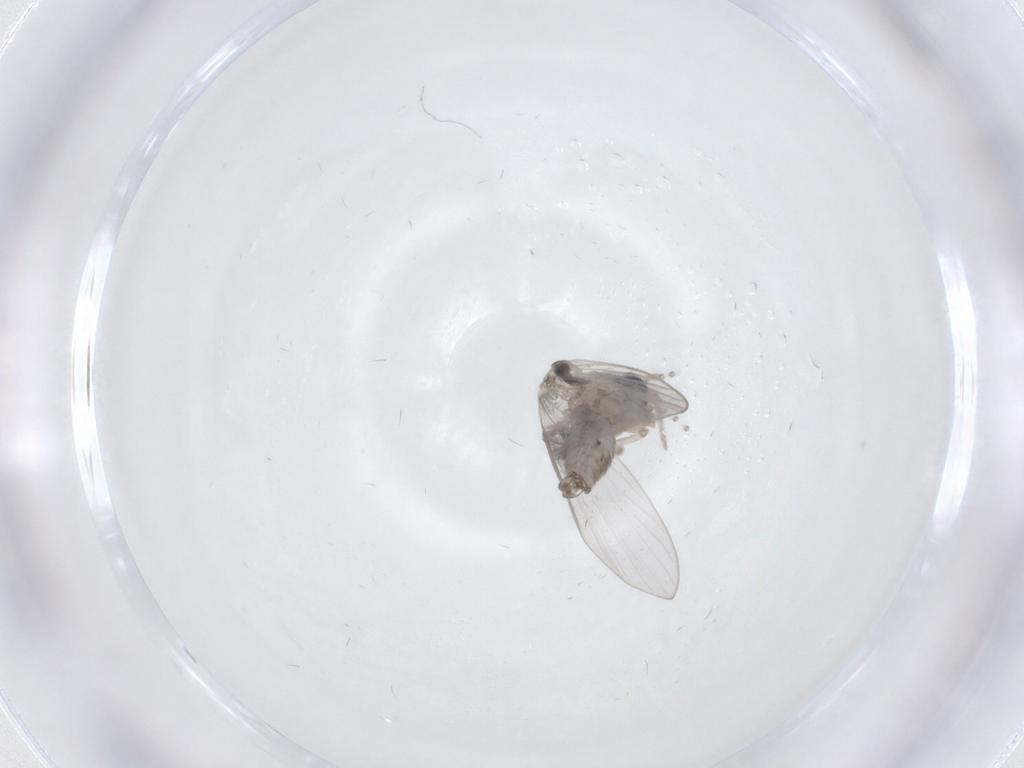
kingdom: Animalia
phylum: Arthropoda
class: Insecta
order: Diptera
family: Psychodidae
